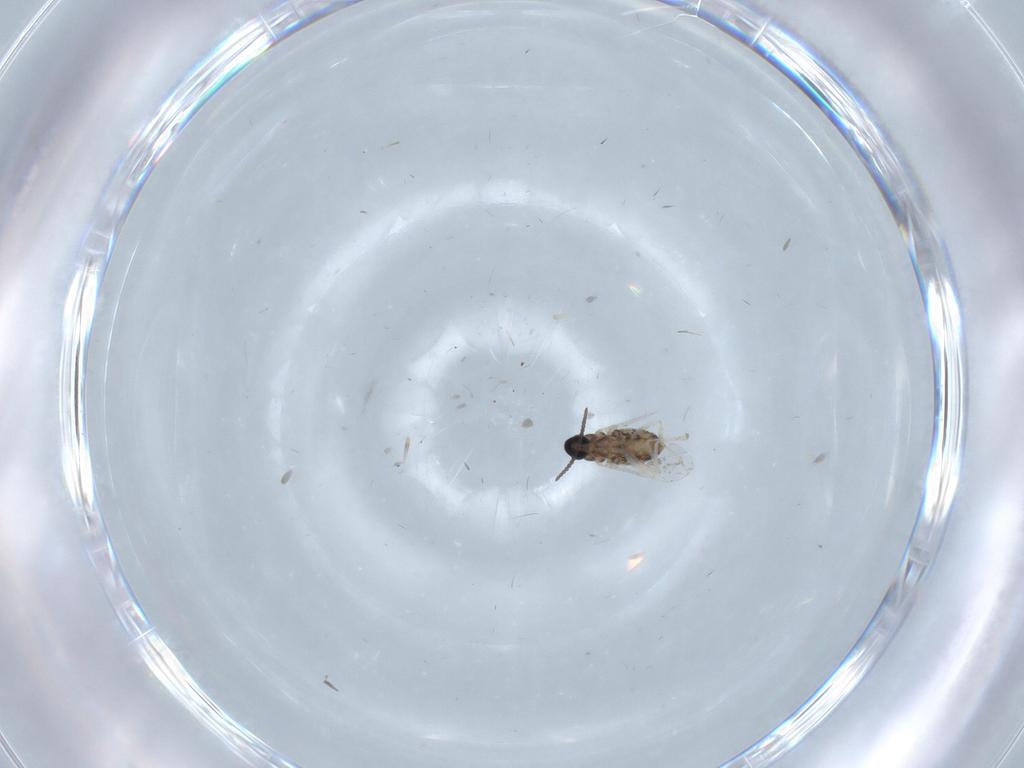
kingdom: Animalia
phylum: Arthropoda
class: Insecta
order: Diptera
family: Cecidomyiidae
